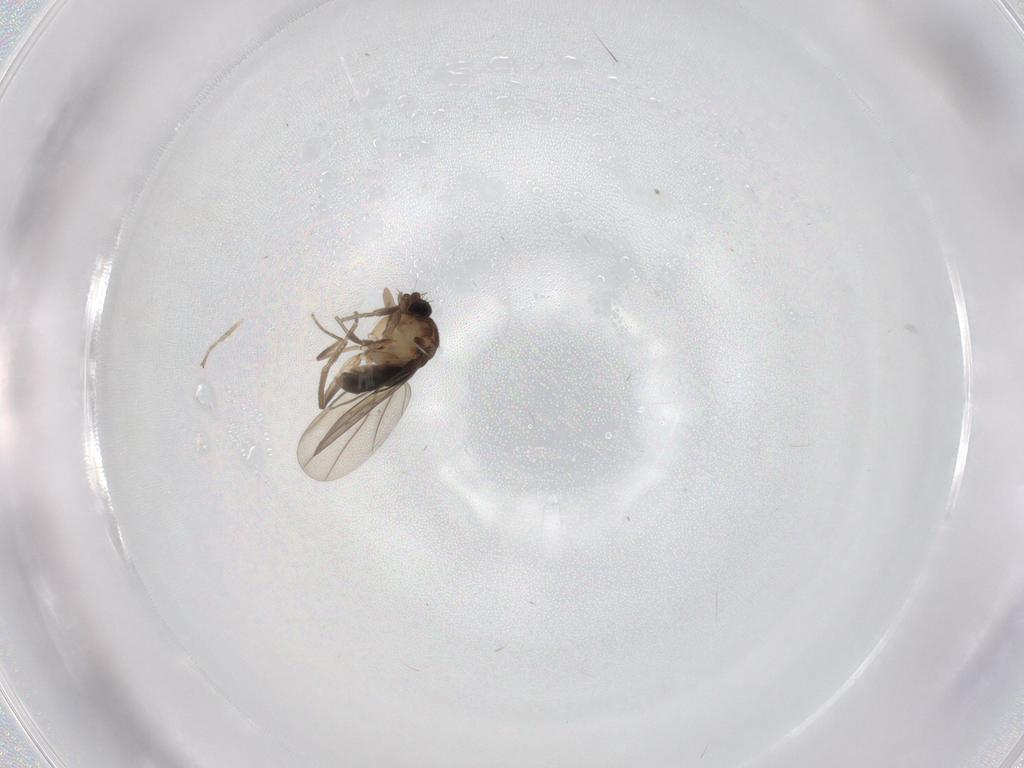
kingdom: Animalia
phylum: Arthropoda
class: Insecta
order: Diptera
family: Phoridae
